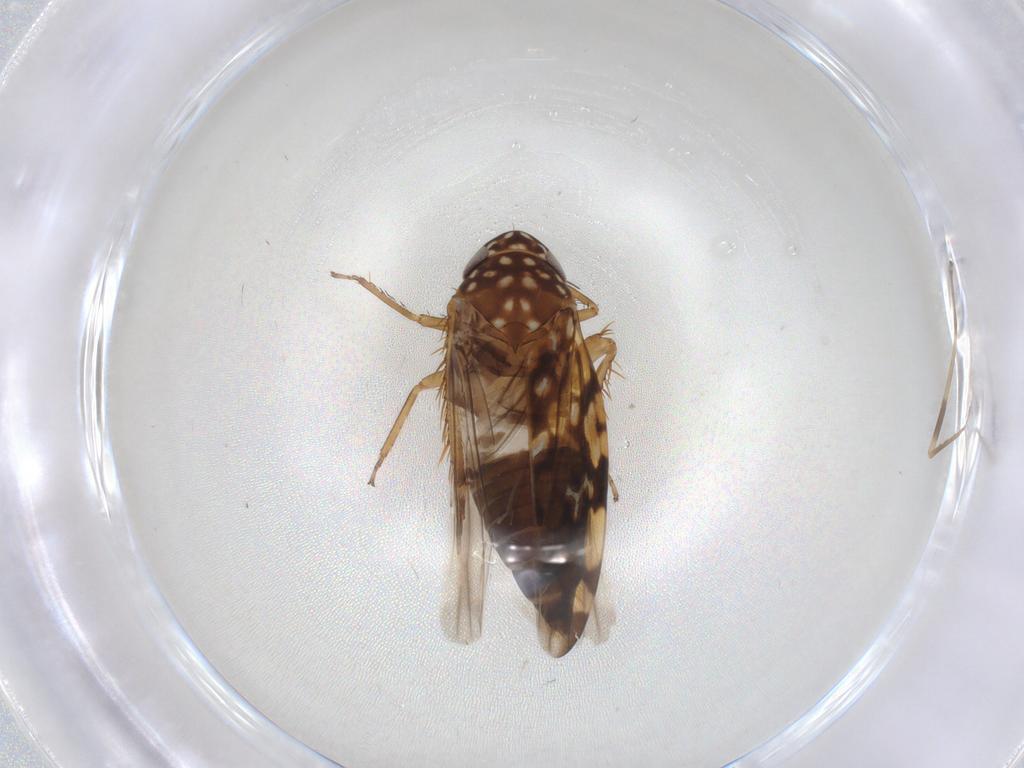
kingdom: Animalia
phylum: Arthropoda
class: Insecta
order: Hemiptera
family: Cicadellidae
